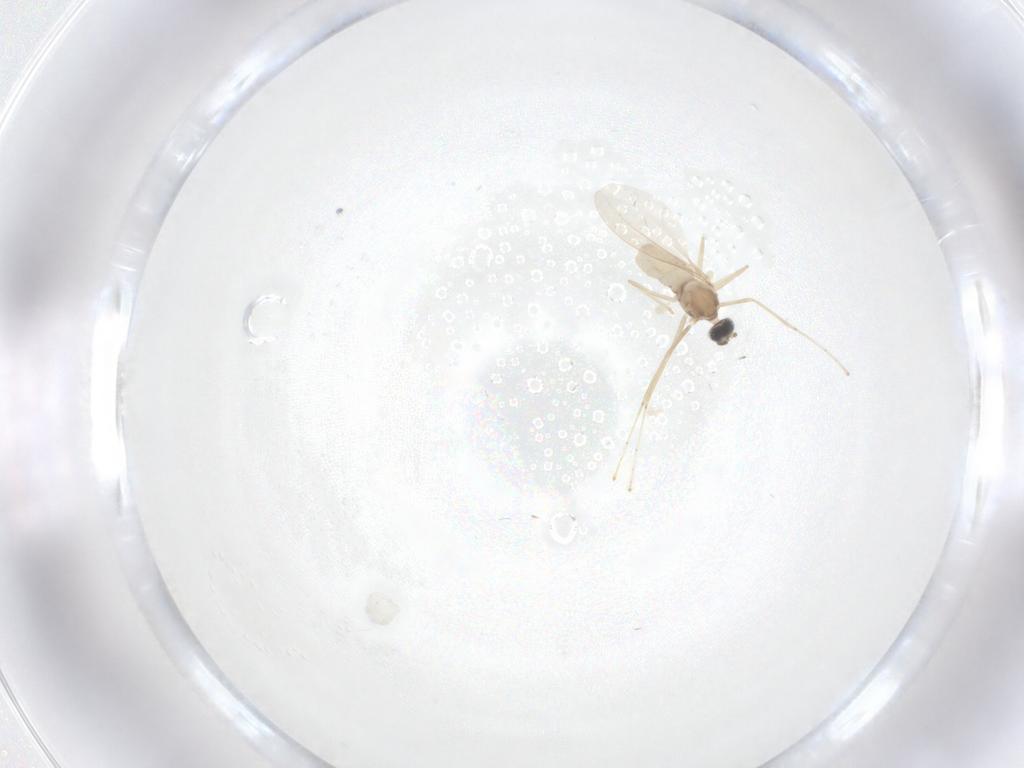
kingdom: Animalia
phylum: Arthropoda
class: Insecta
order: Diptera
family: Cecidomyiidae
